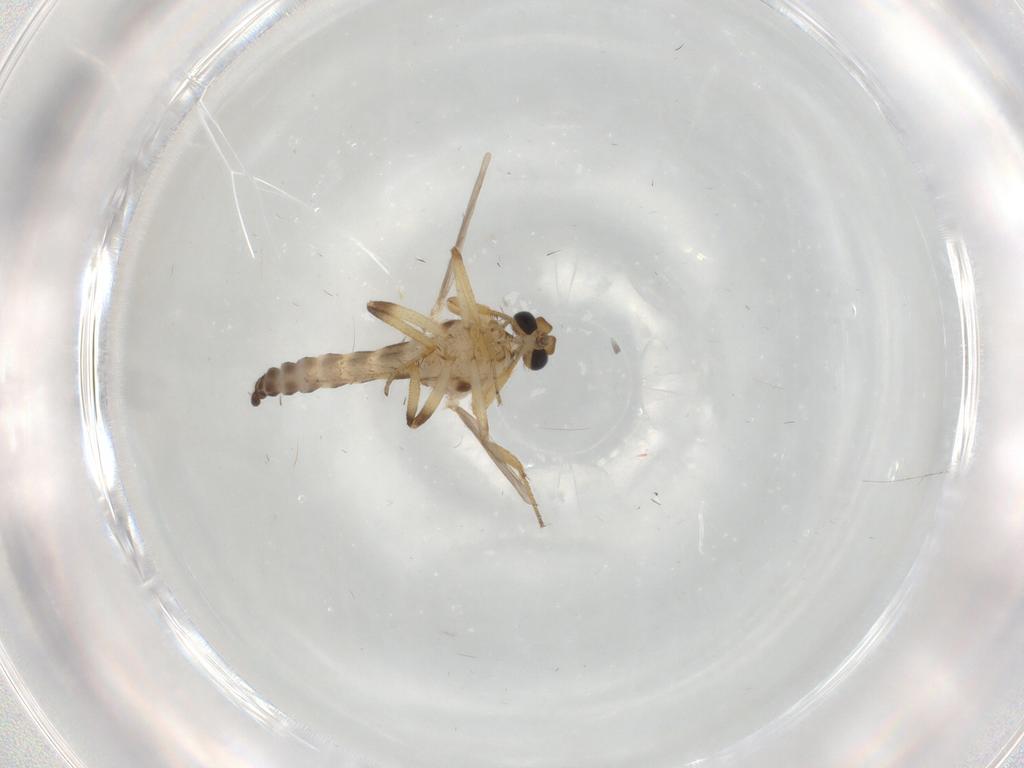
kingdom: Animalia
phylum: Arthropoda
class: Insecta
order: Diptera
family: Ceratopogonidae
